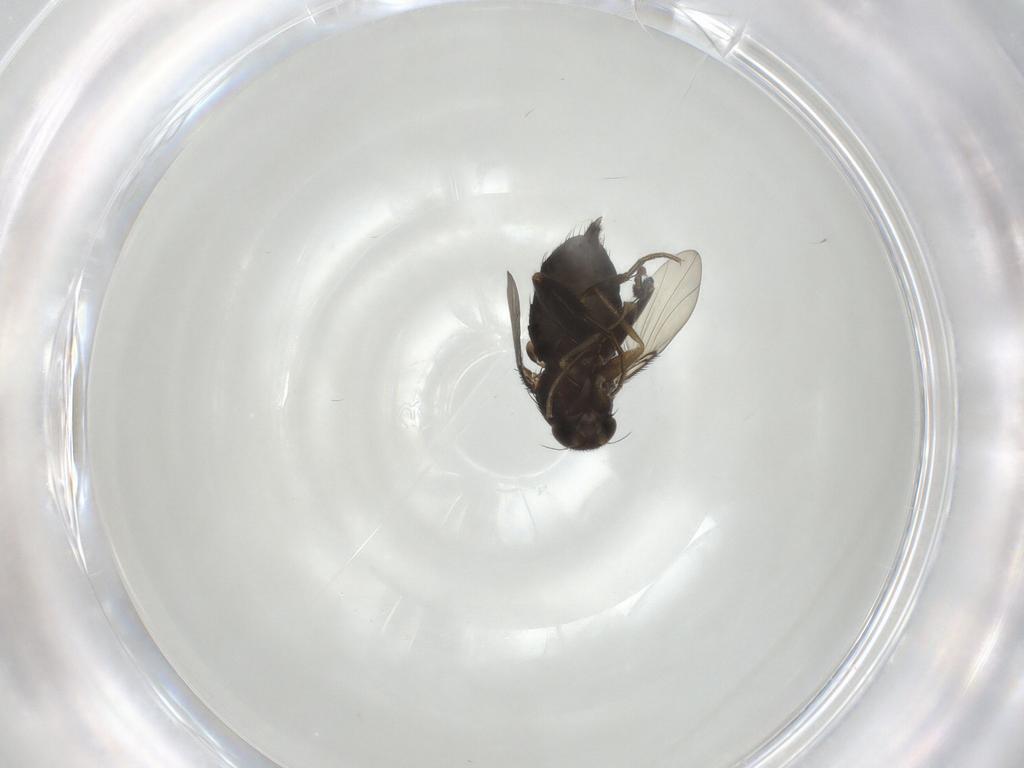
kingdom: Animalia
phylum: Arthropoda
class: Insecta
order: Diptera
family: Phoridae
